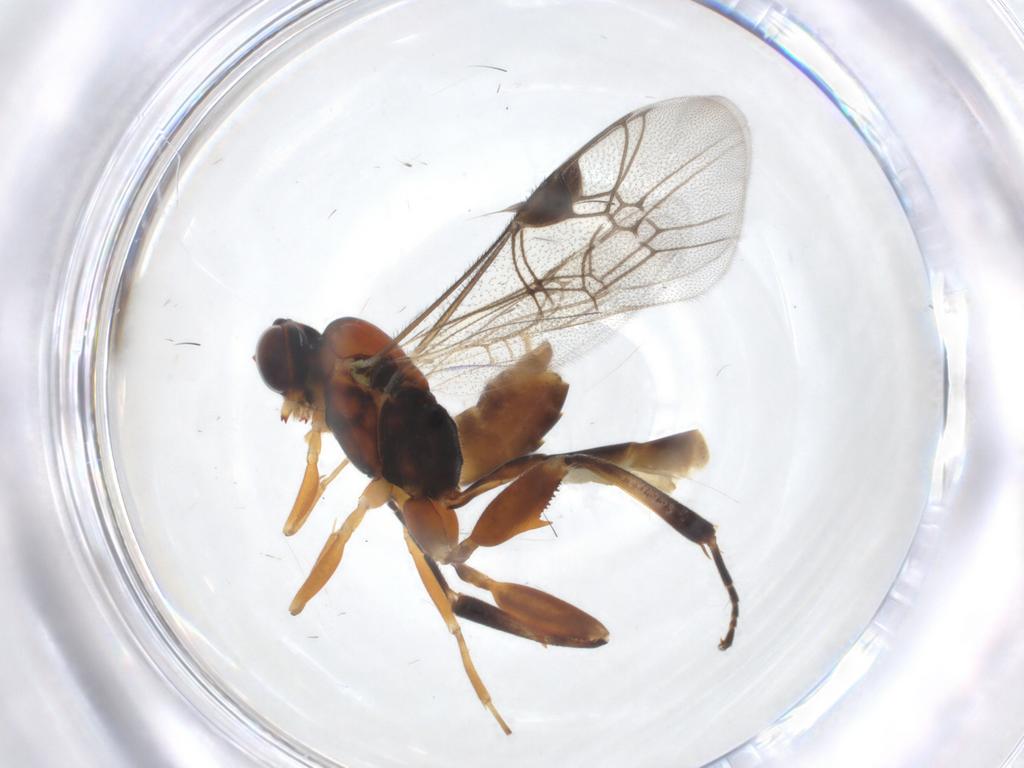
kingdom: Animalia
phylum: Arthropoda
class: Insecta
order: Hymenoptera
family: Ichneumonidae
